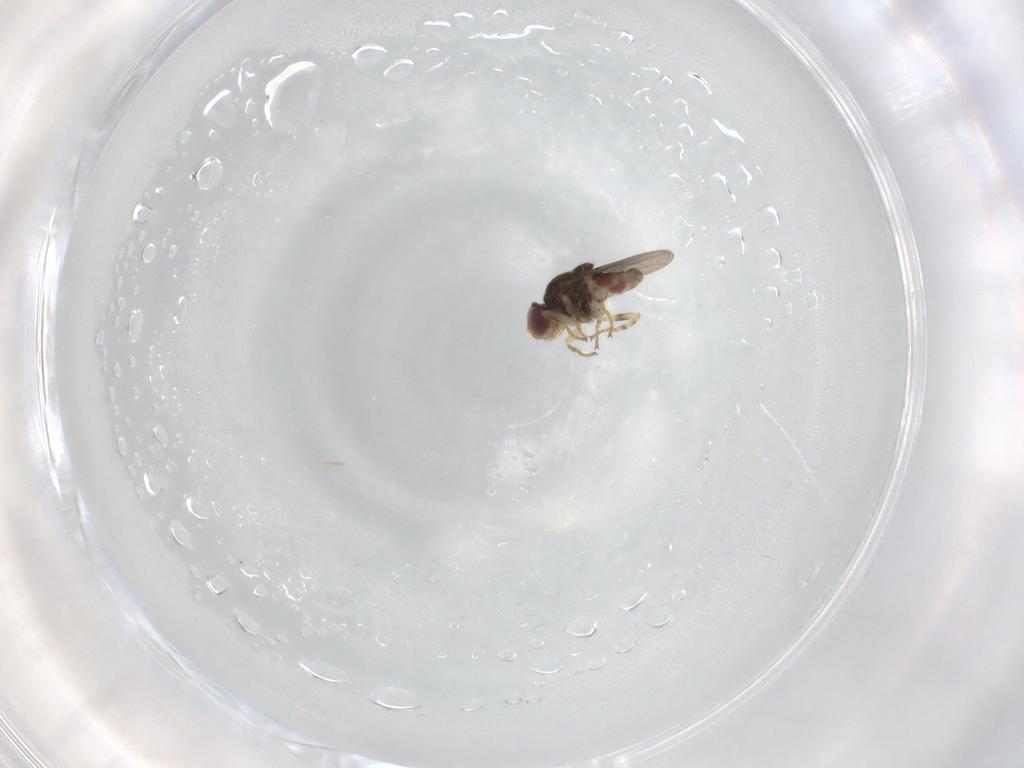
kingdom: Animalia
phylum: Arthropoda
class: Insecta
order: Diptera
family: Chloropidae
